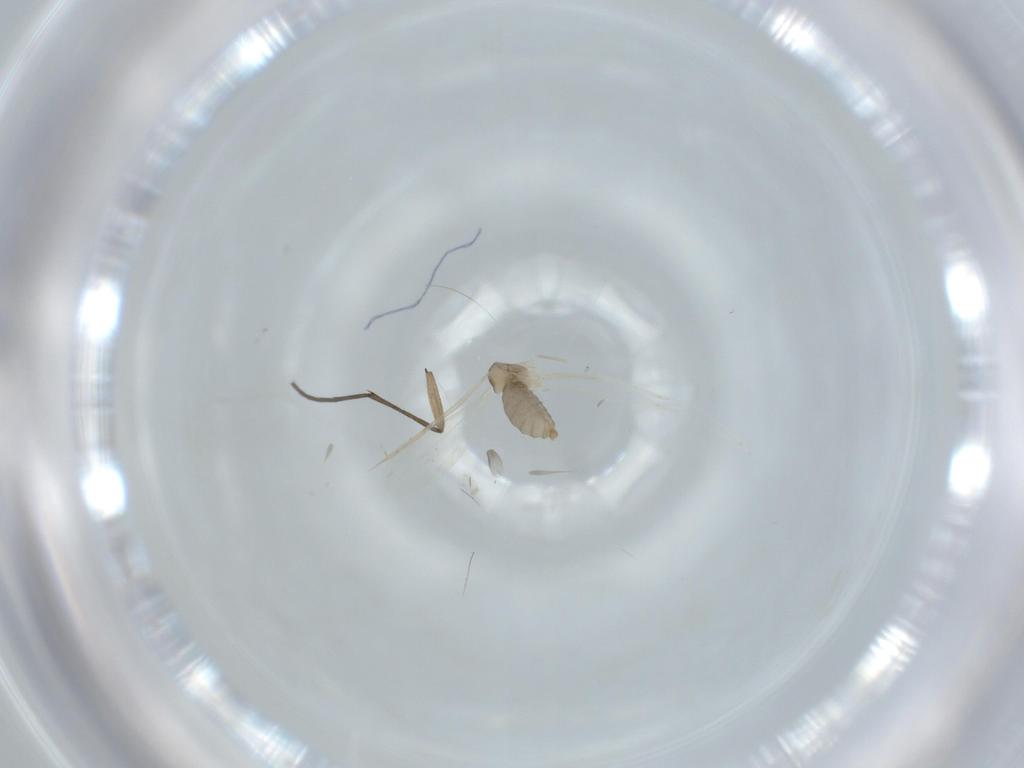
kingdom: Animalia
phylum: Arthropoda
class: Insecta
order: Diptera
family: Cecidomyiidae
